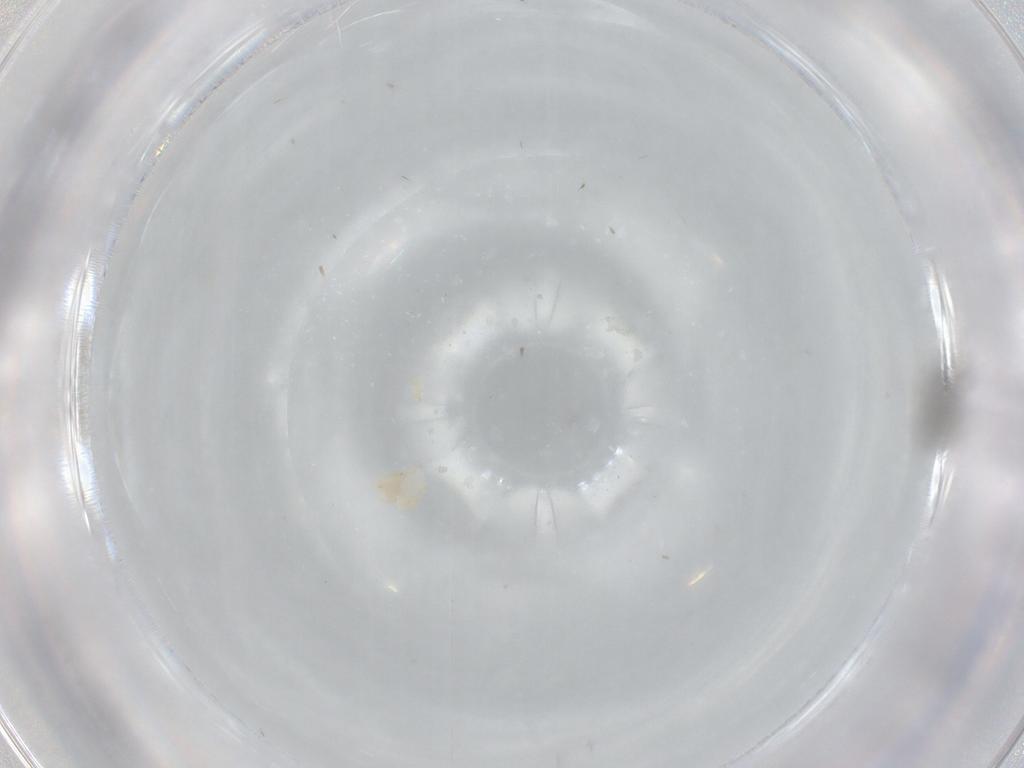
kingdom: Animalia
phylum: Arthropoda
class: Insecta
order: Hymenoptera
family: Scelionidae
